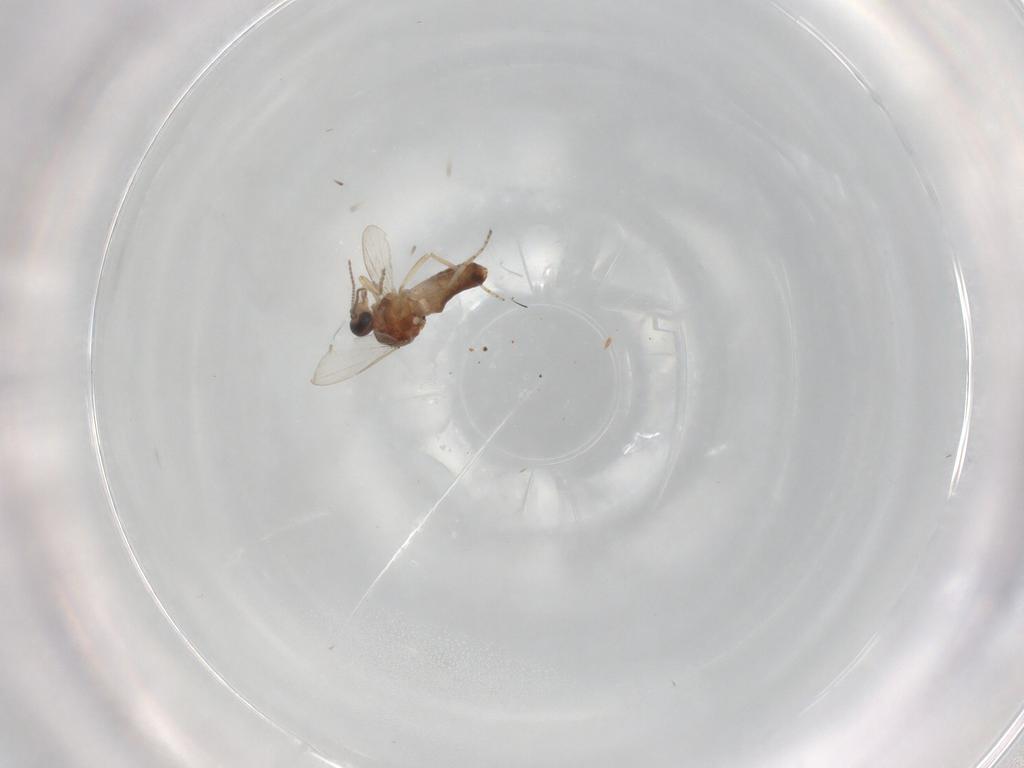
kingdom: Animalia
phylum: Arthropoda
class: Insecta
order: Diptera
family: Ceratopogonidae
